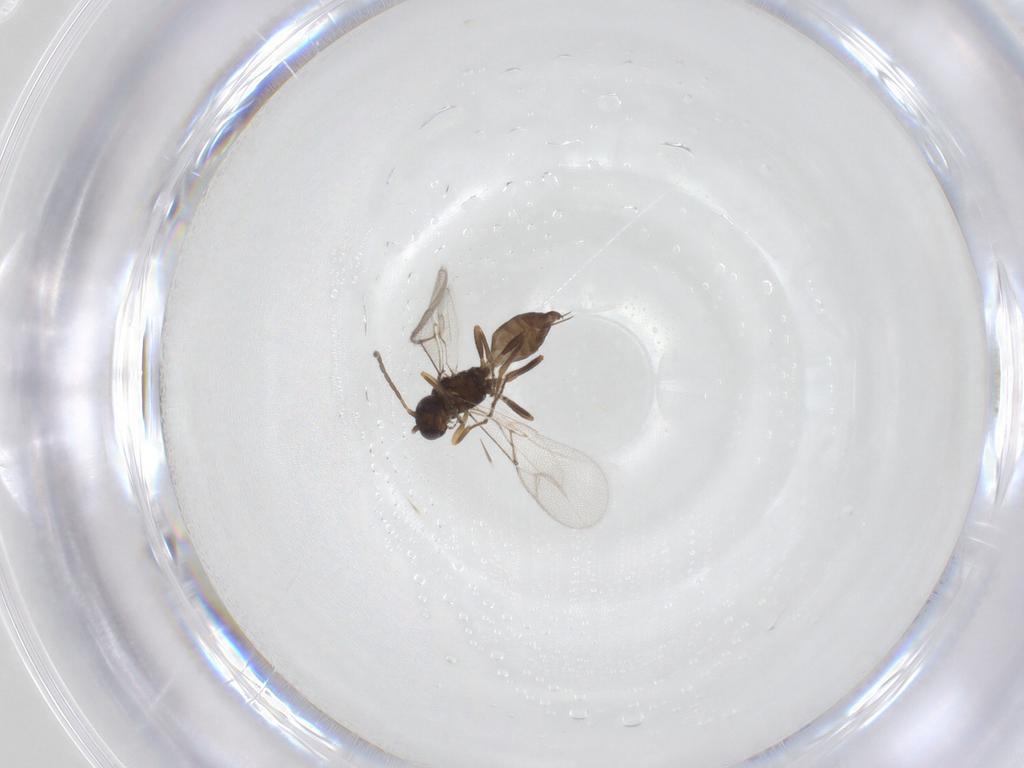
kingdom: Animalia
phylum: Arthropoda
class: Insecta
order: Hymenoptera
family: Braconidae
